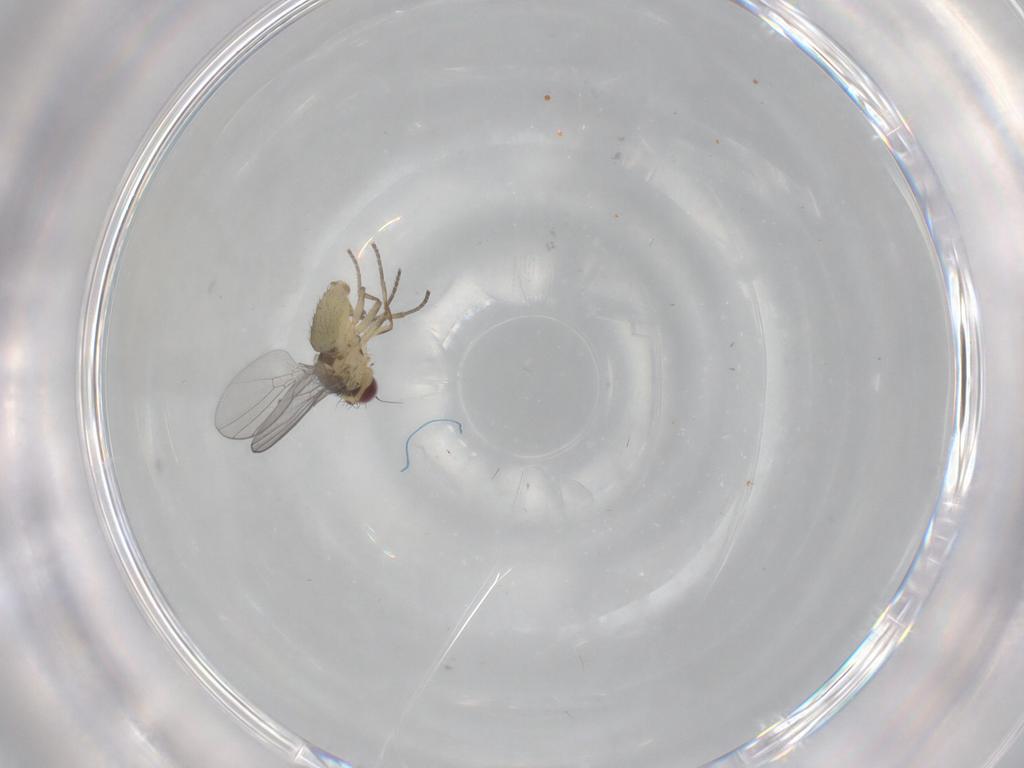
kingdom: Animalia
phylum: Arthropoda
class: Insecta
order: Diptera
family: Agromyzidae
